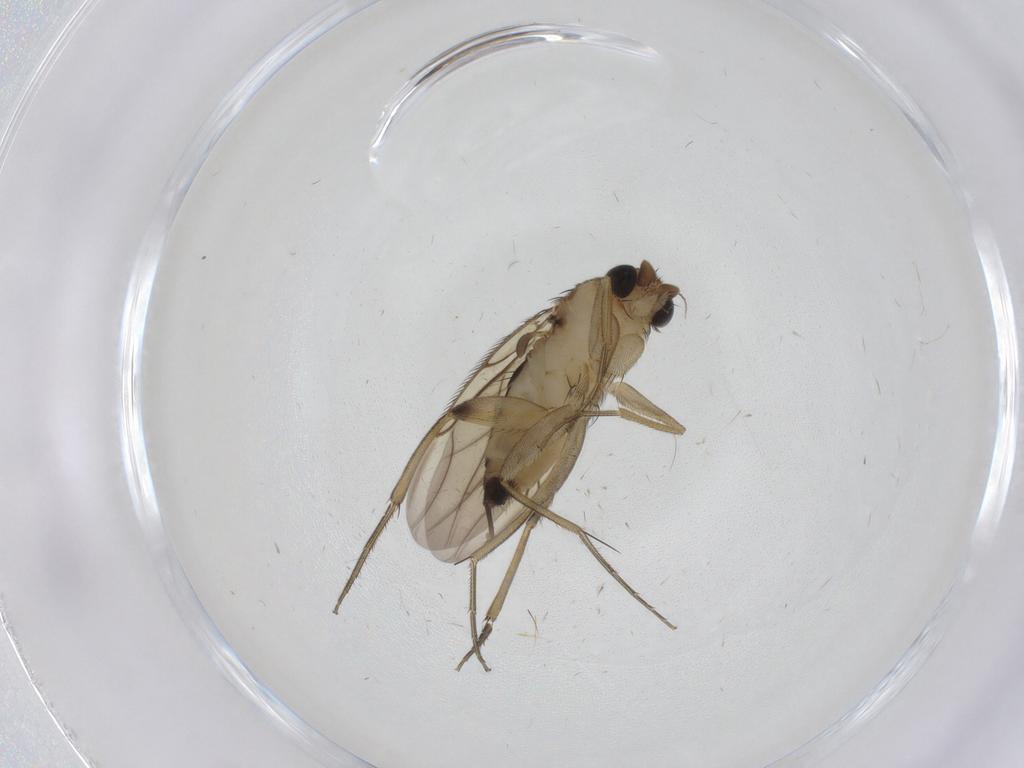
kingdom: Animalia
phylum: Arthropoda
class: Insecta
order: Diptera
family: Phoridae
